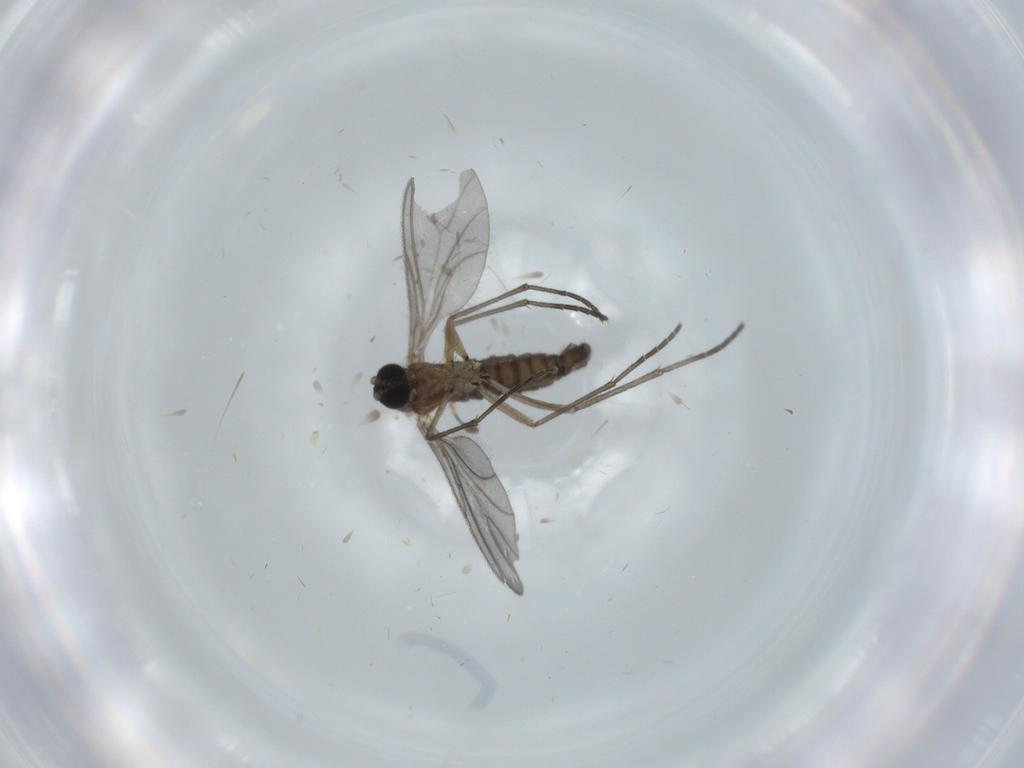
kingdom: Animalia
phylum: Arthropoda
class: Insecta
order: Diptera
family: Sciaridae
